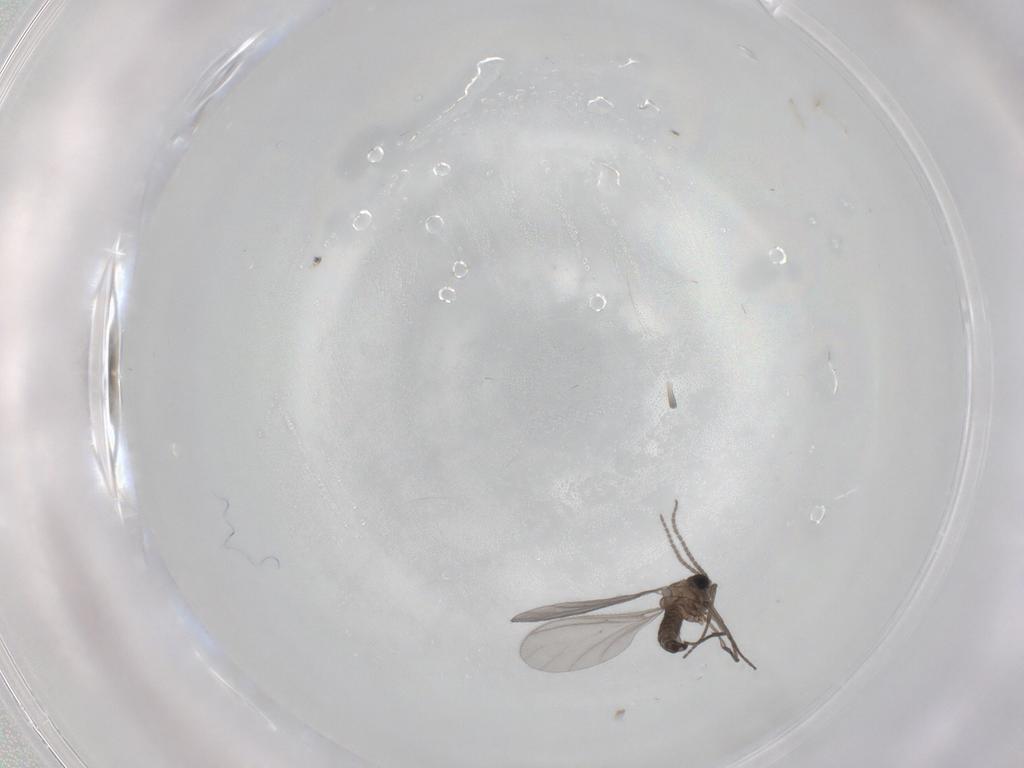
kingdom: Animalia
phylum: Arthropoda
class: Insecta
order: Diptera
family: Sciaridae
